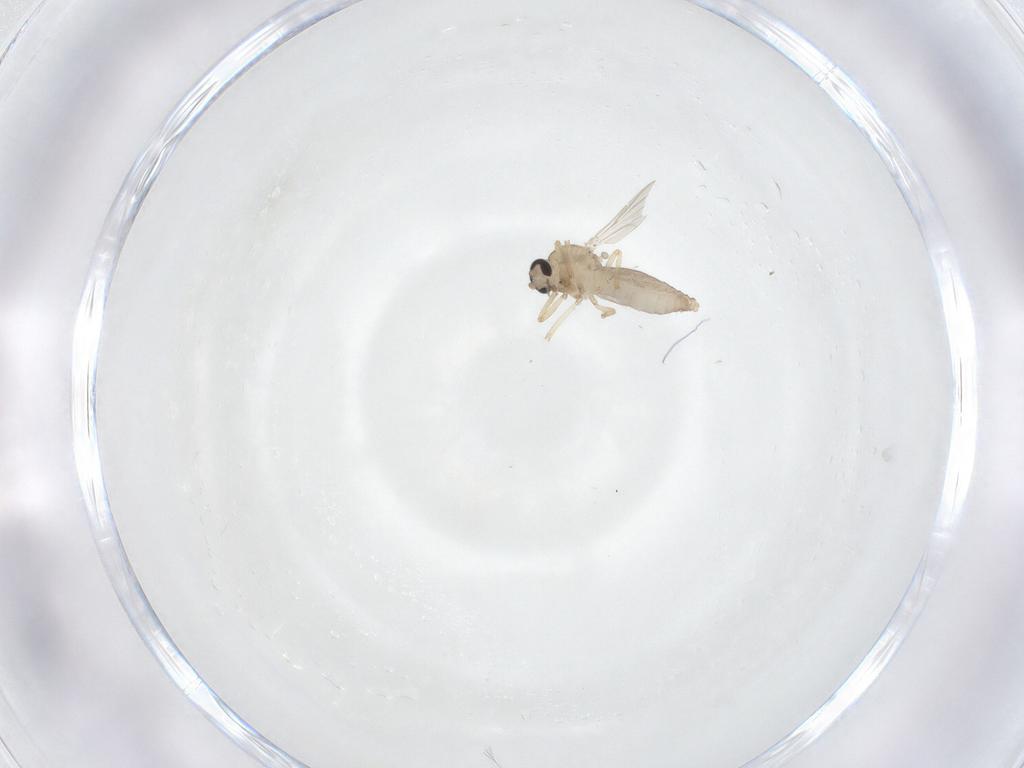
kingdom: Animalia
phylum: Arthropoda
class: Insecta
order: Diptera
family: Ceratopogonidae
